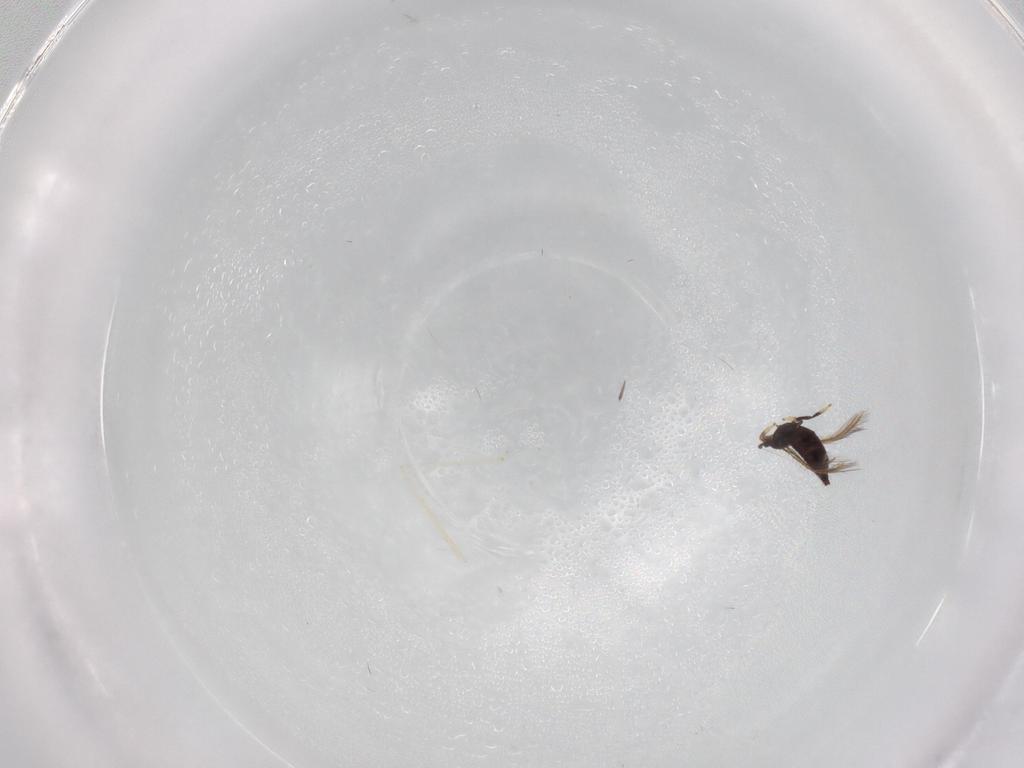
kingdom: Animalia
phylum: Arthropoda
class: Insecta
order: Thysanoptera
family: Thripidae
